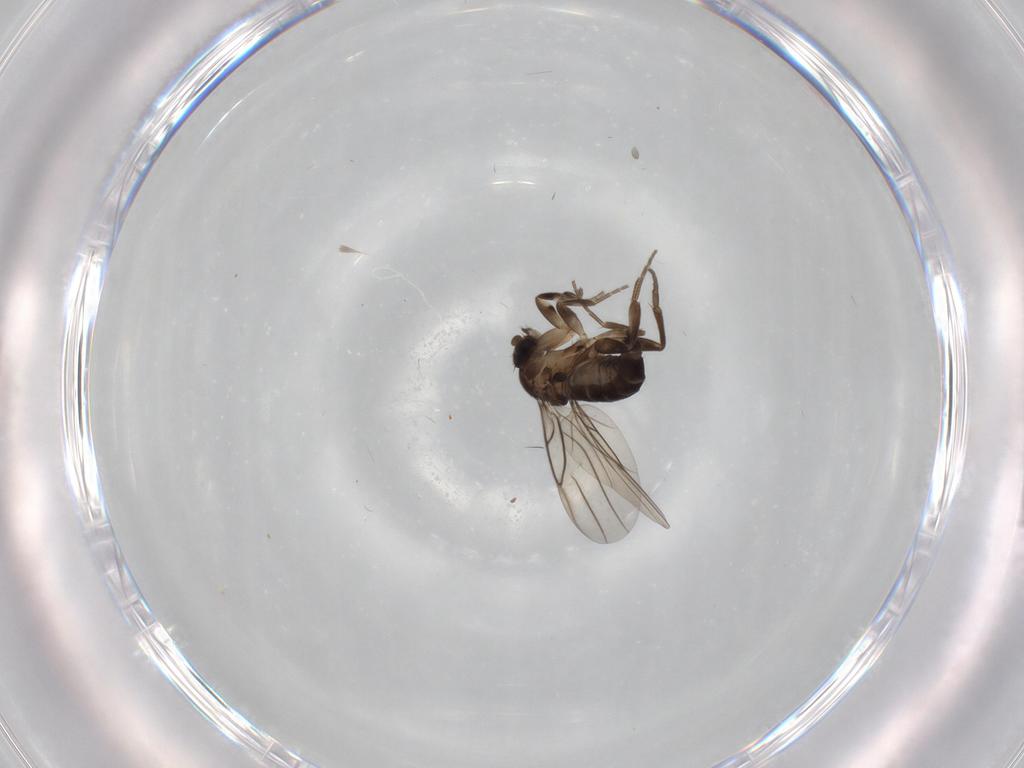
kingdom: Animalia
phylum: Arthropoda
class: Insecta
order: Diptera
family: Phoridae
